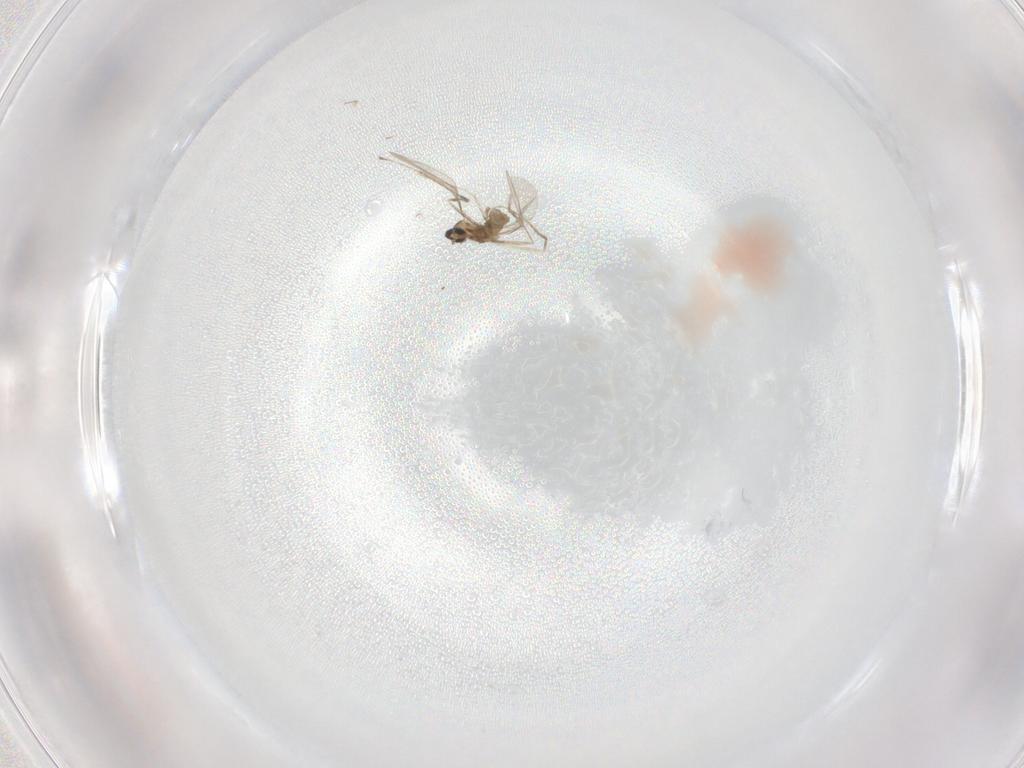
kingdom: Animalia
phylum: Arthropoda
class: Insecta
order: Diptera
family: Cecidomyiidae
